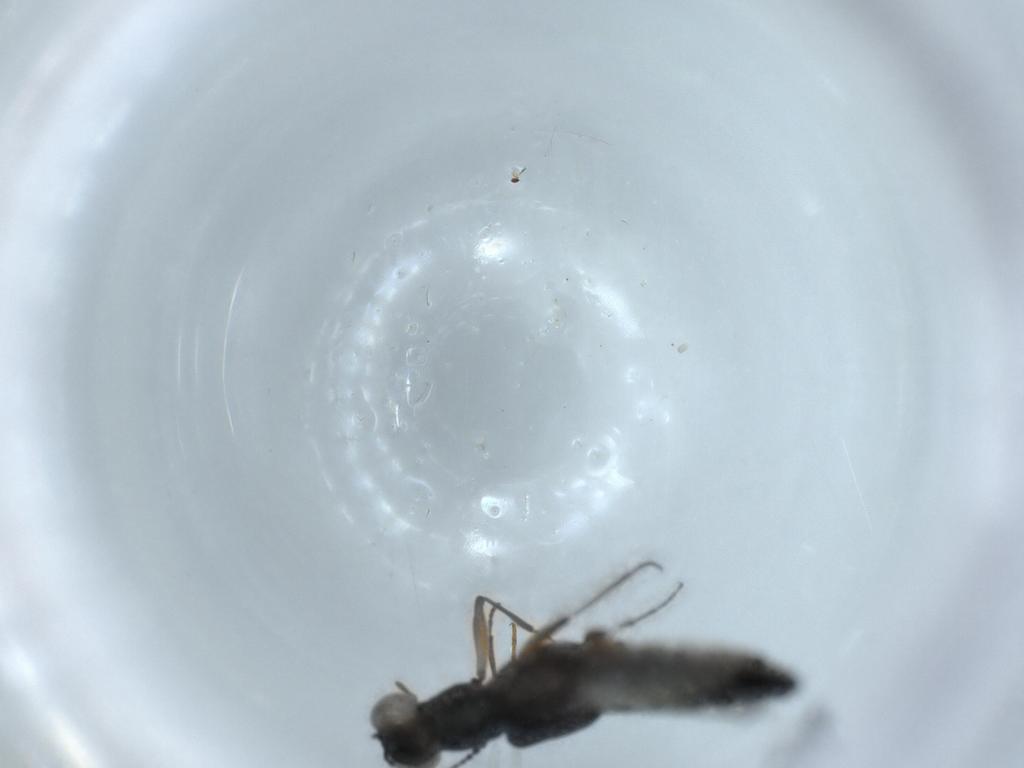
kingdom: Animalia
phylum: Arthropoda
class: Insecta
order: Coleoptera
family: Staphylinidae
